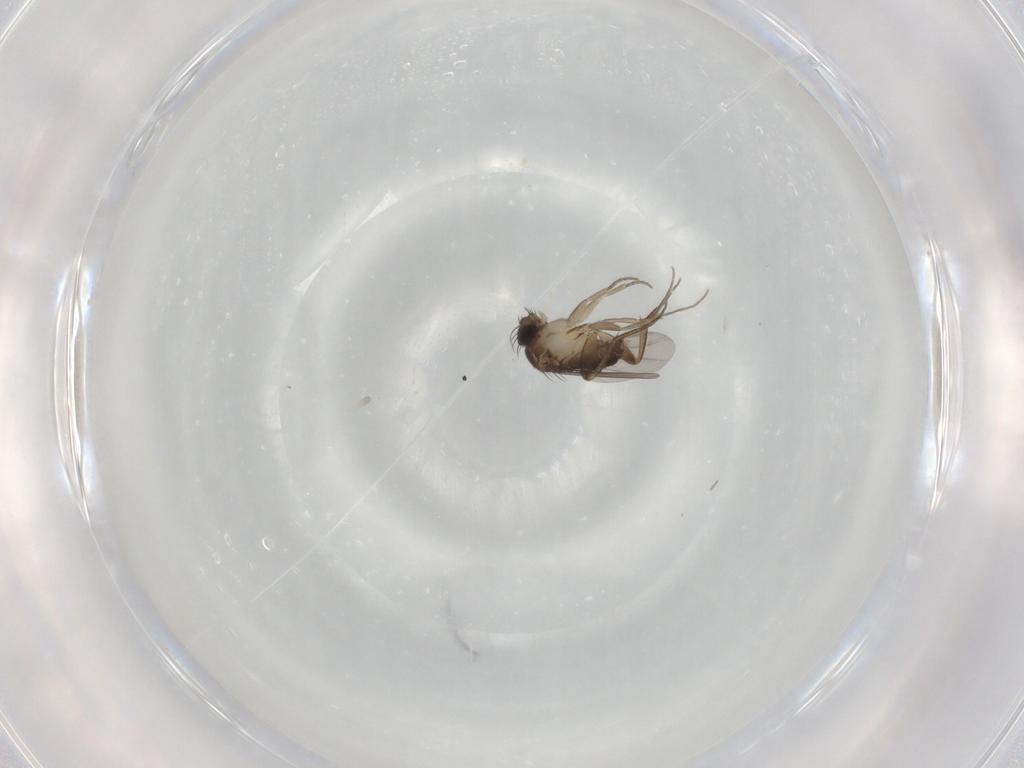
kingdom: Animalia
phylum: Arthropoda
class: Insecta
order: Diptera
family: Phoridae
